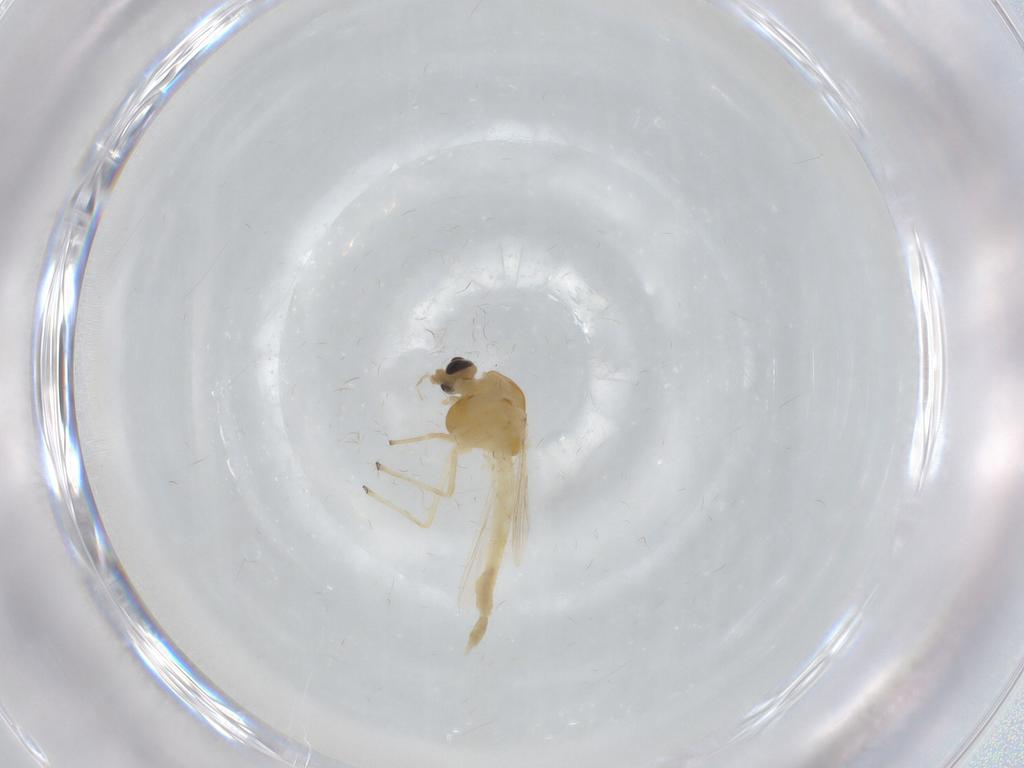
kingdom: Animalia
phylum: Arthropoda
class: Insecta
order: Diptera
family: Chironomidae
